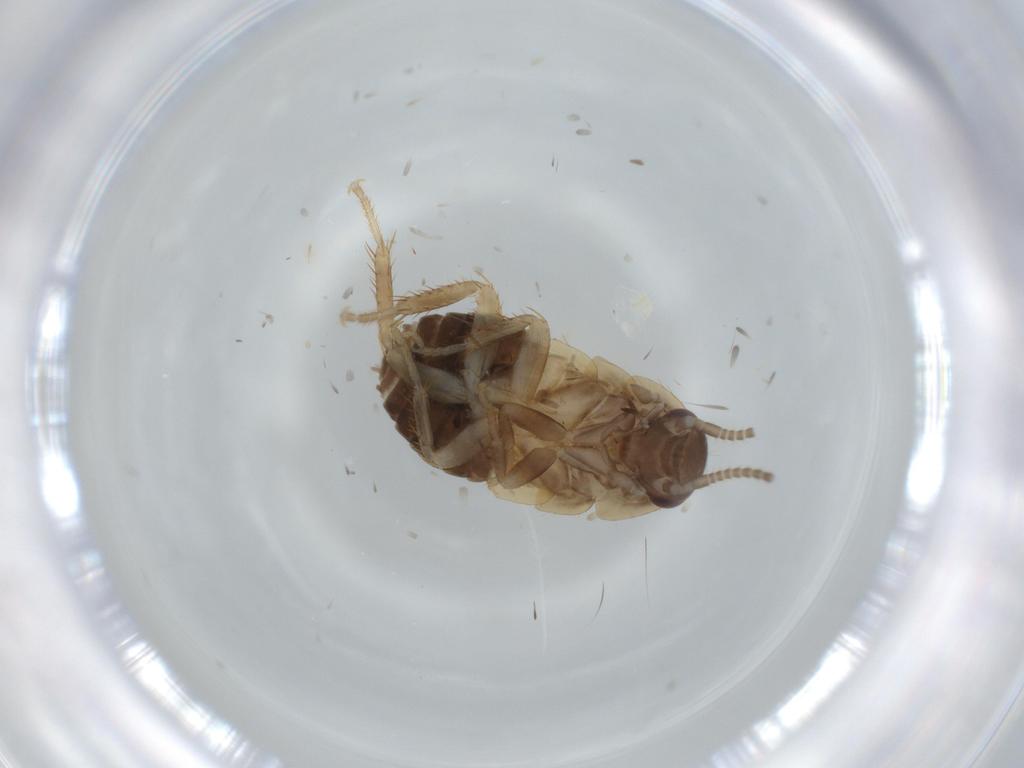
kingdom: Animalia
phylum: Arthropoda
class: Insecta
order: Blattodea
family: Ectobiidae
